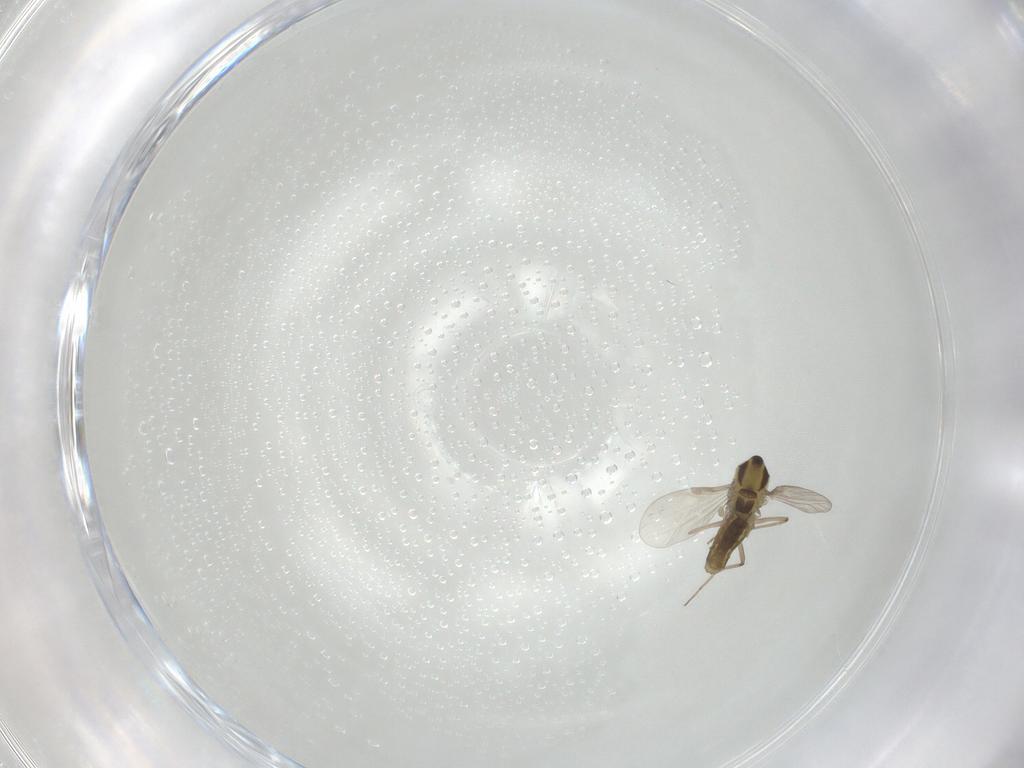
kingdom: Animalia
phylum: Arthropoda
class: Insecta
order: Diptera
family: Chironomidae
